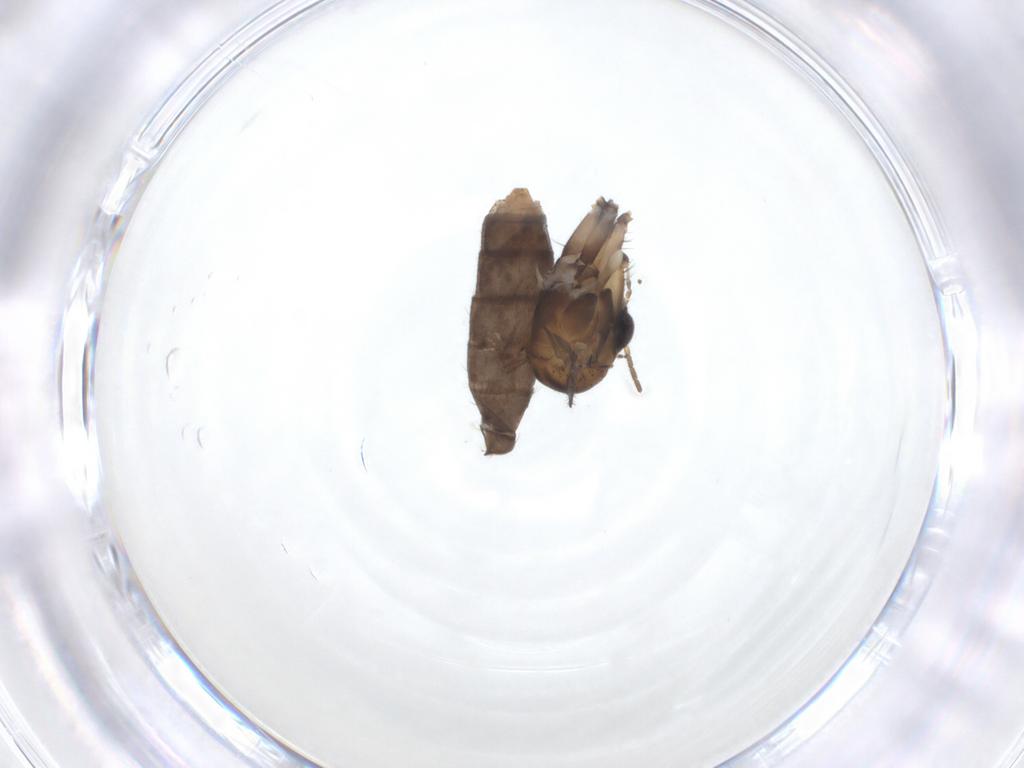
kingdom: Animalia
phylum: Arthropoda
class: Insecta
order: Diptera
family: Mycetophilidae
